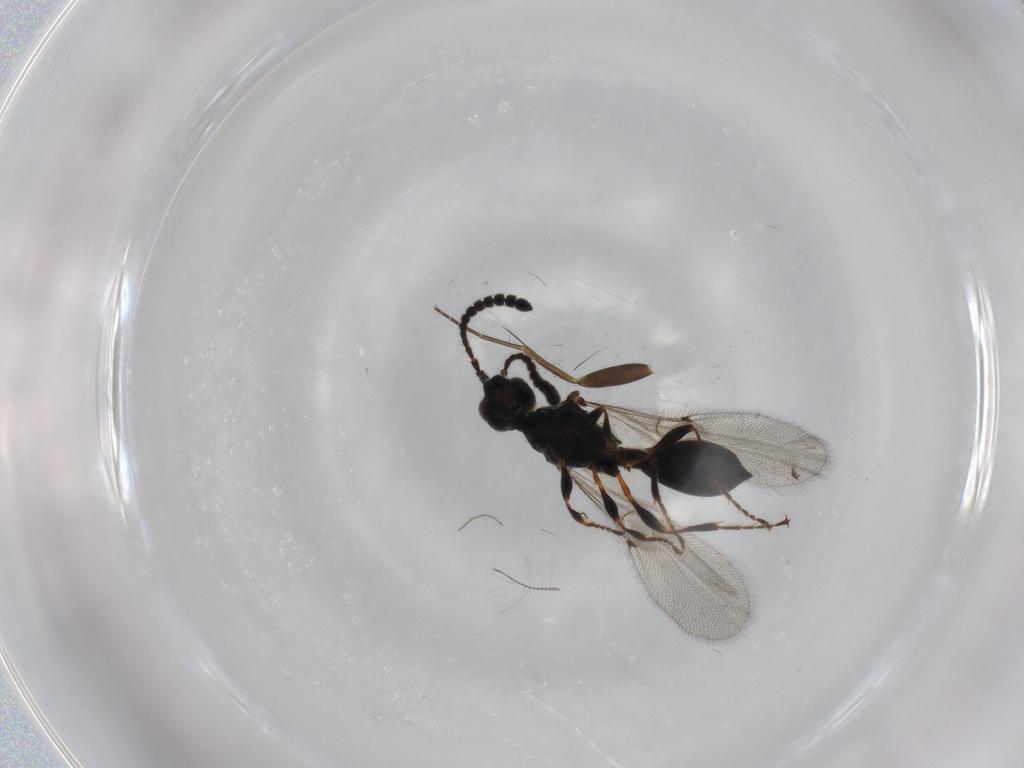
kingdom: Animalia
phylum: Arthropoda
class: Insecta
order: Hymenoptera
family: Diapriidae
